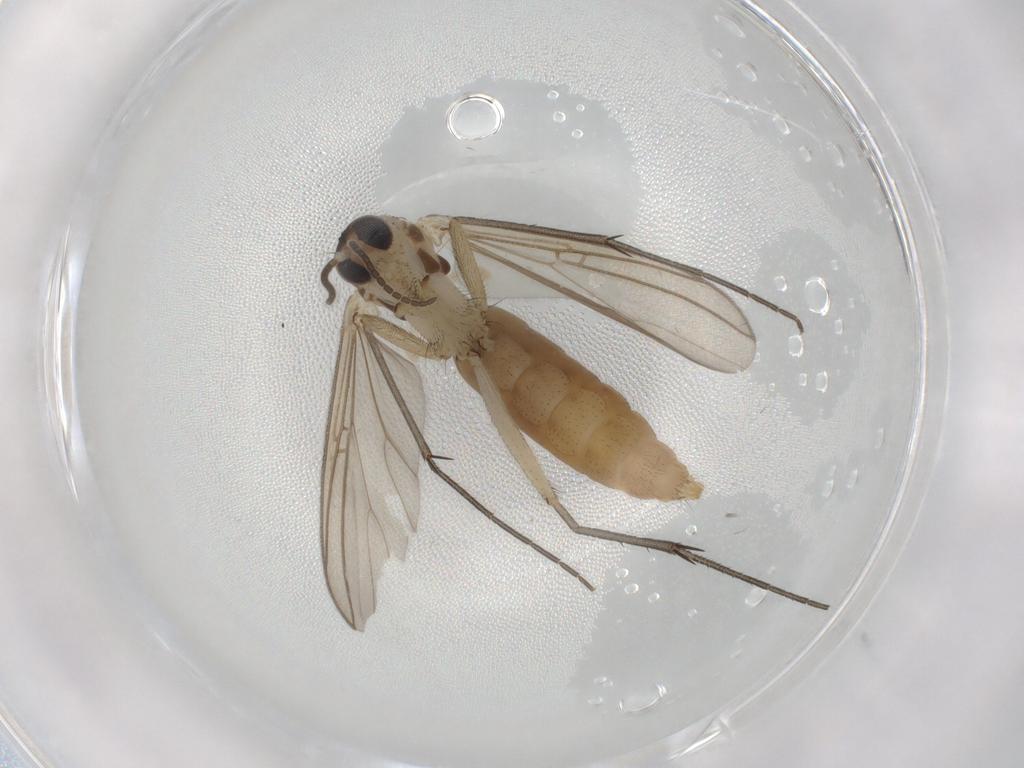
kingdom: Animalia
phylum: Arthropoda
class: Insecta
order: Diptera
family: Mycetophilidae
